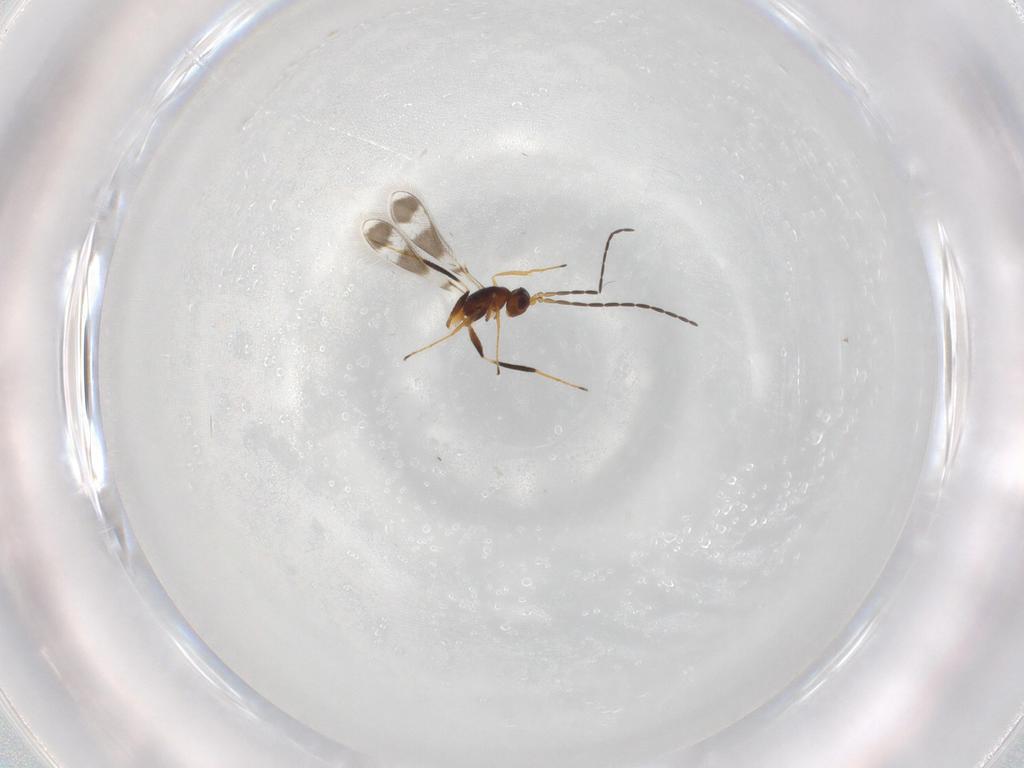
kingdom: Animalia
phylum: Arthropoda
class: Insecta
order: Hymenoptera
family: Mymaridae
